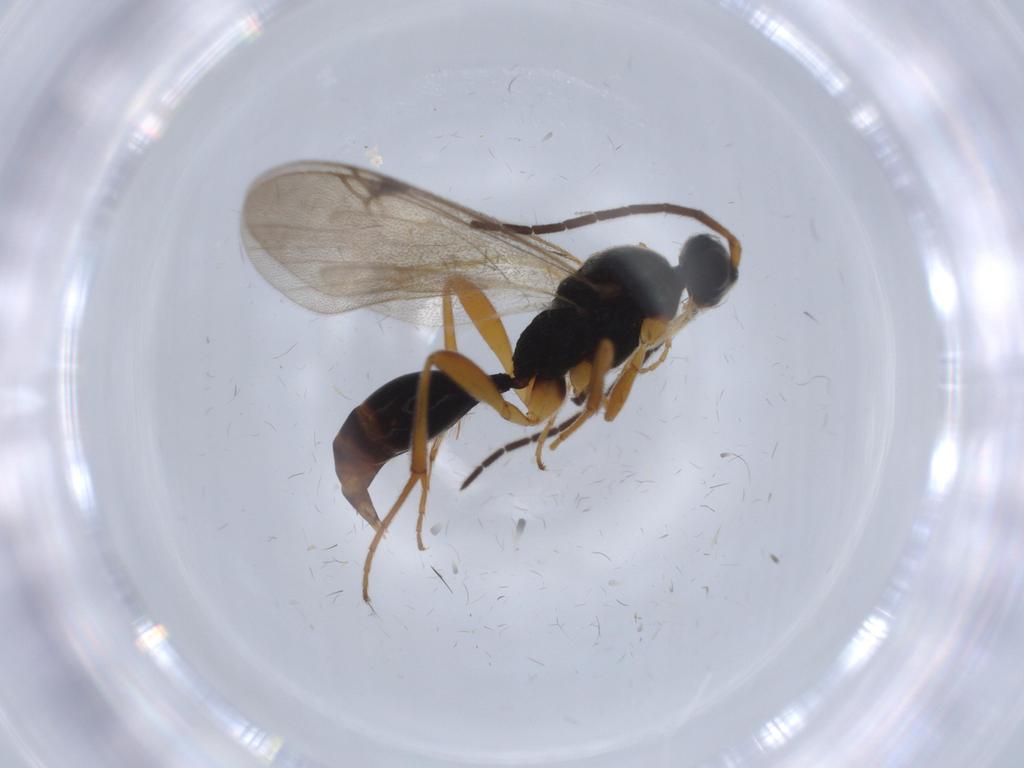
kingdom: Animalia
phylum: Arthropoda
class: Insecta
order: Hymenoptera
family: Proctotrupidae
